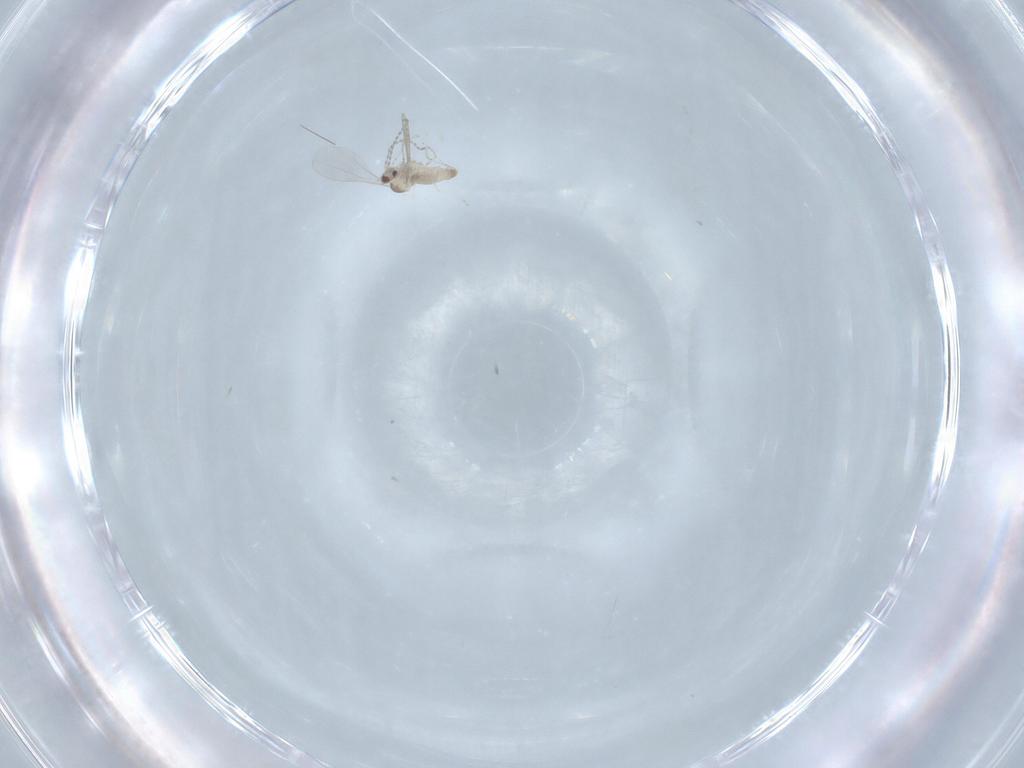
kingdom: Animalia
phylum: Arthropoda
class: Insecta
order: Diptera
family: Cecidomyiidae
